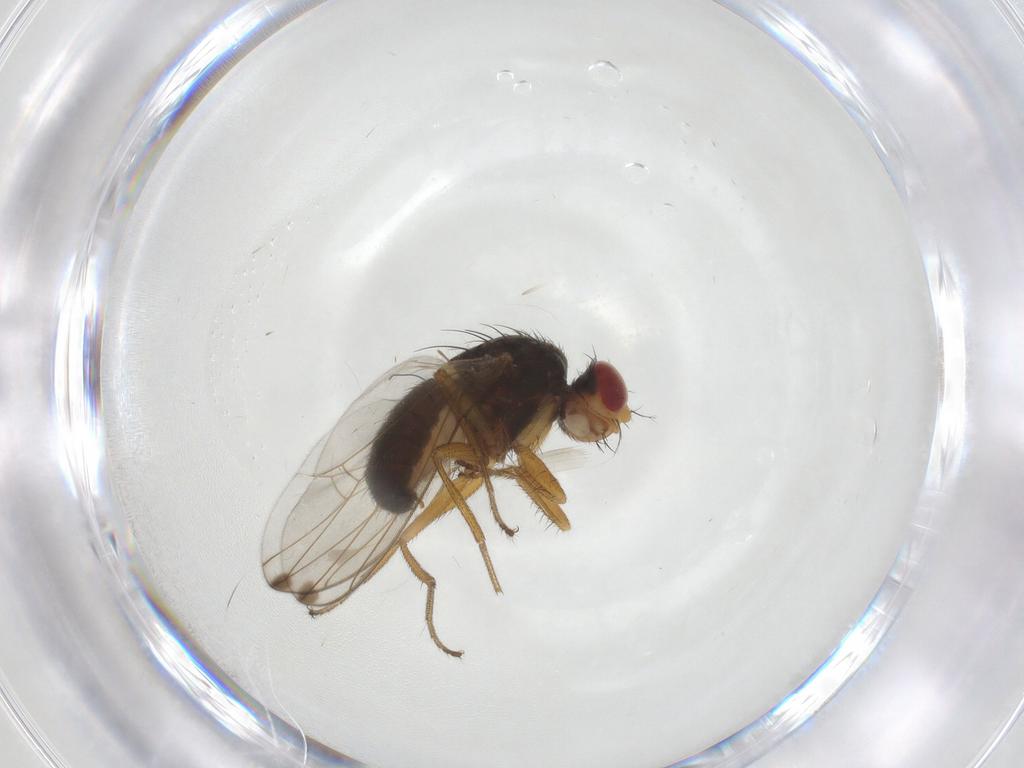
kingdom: Animalia
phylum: Arthropoda
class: Insecta
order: Diptera
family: Drosophilidae
